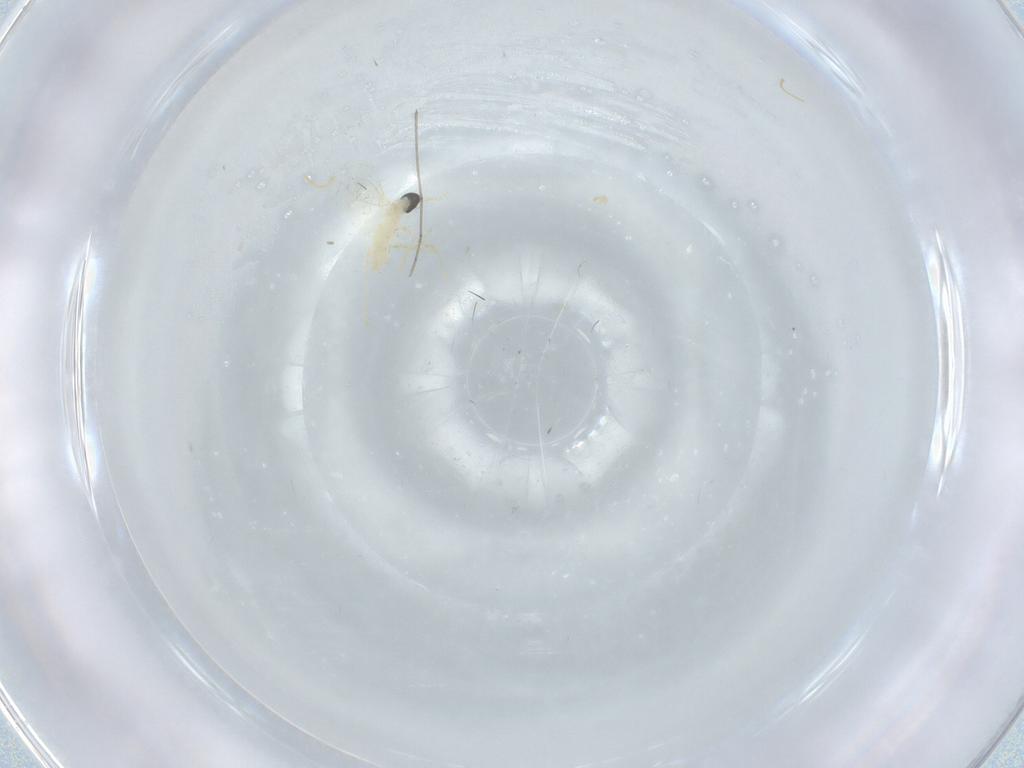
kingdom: Animalia
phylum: Arthropoda
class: Insecta
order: Diptera
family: Cecidomyiidae
